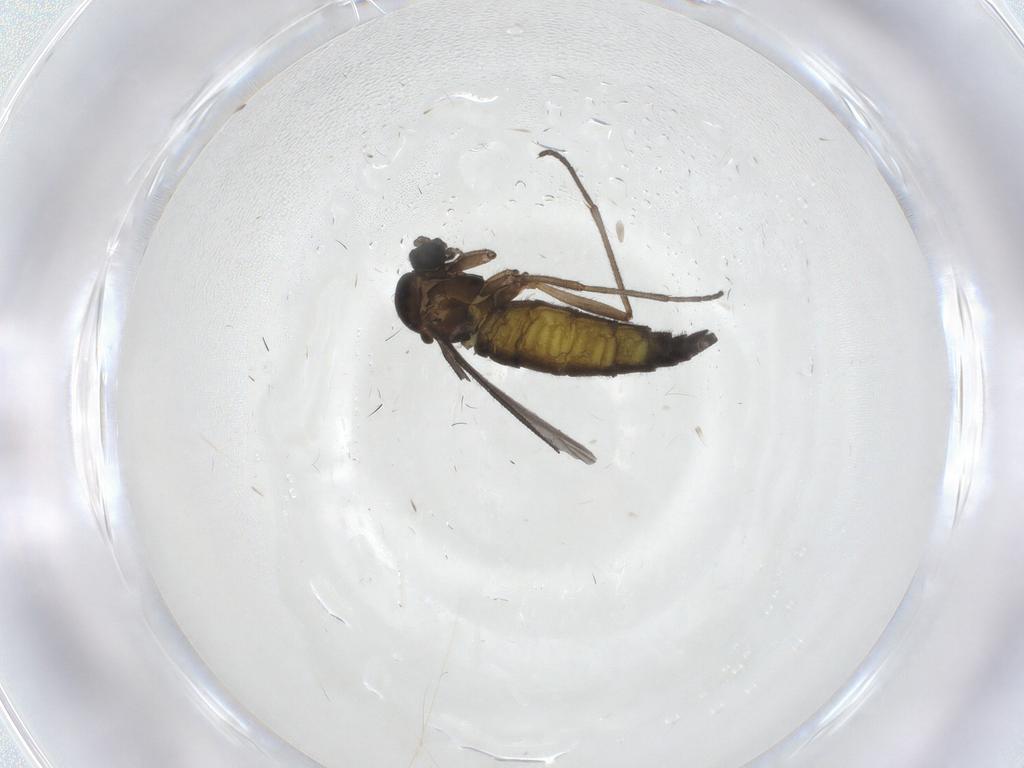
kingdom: Animalia
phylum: Arthropoda
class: Insecta
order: Diptera
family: Sciaridae
